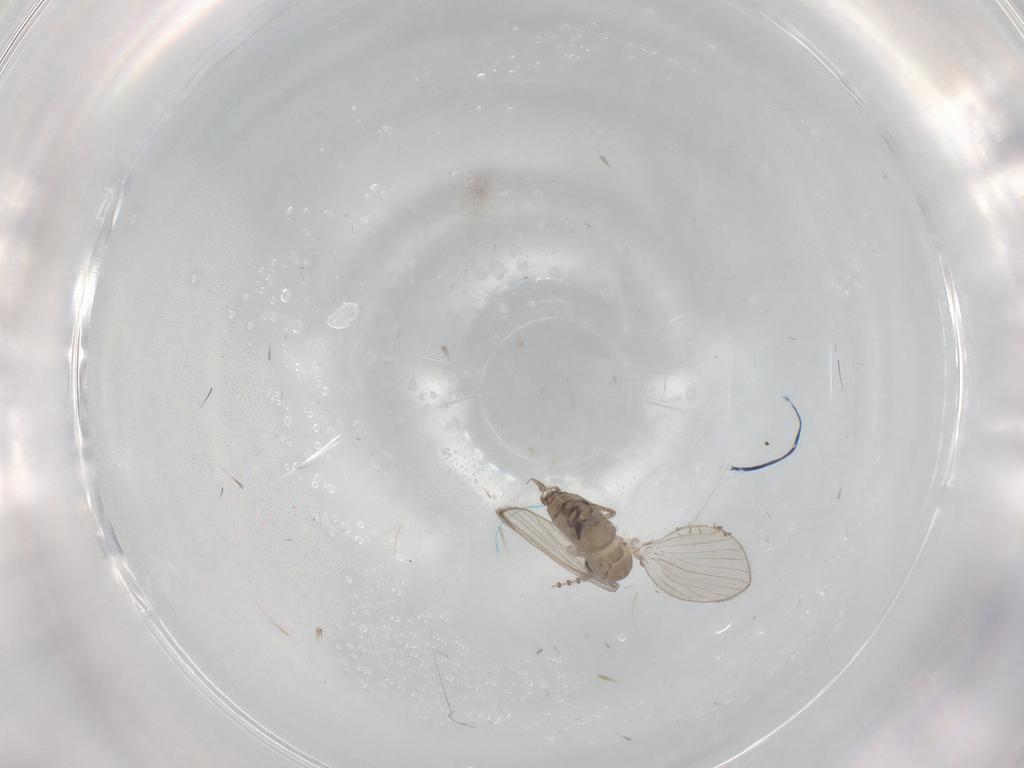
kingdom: Animalia
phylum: Arthropoda
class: Insecta
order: Diptera
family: Psychodidae
